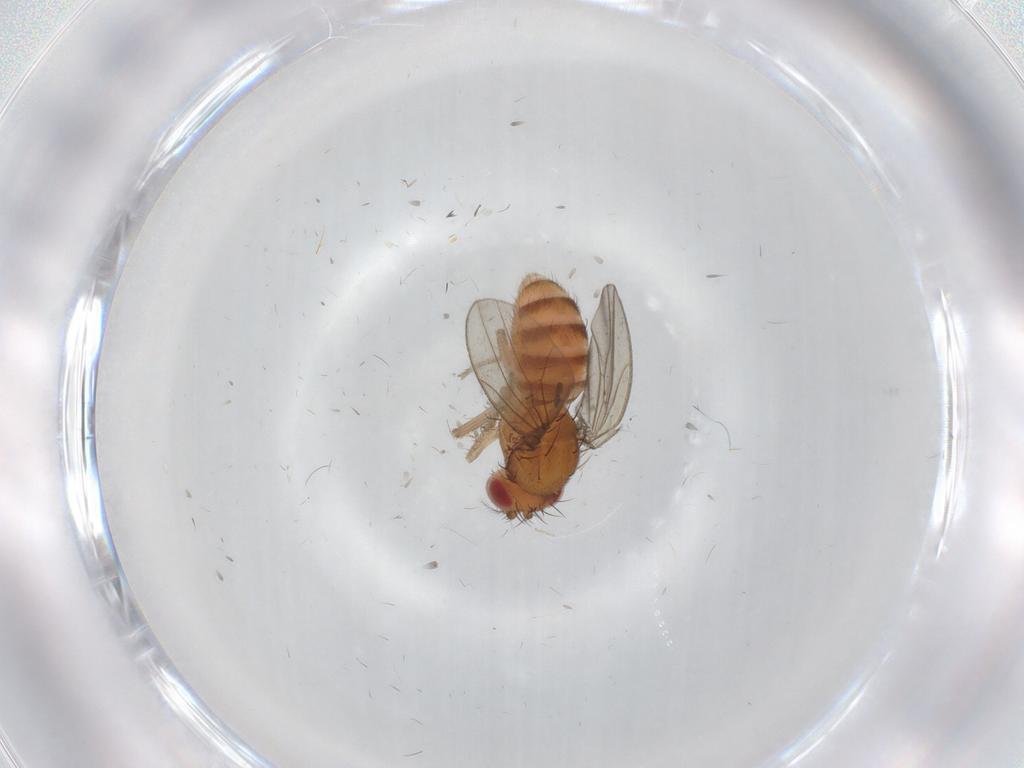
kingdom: Animalia
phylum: Arthropoda
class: Insecta
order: Diptera
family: Drosophilidae
